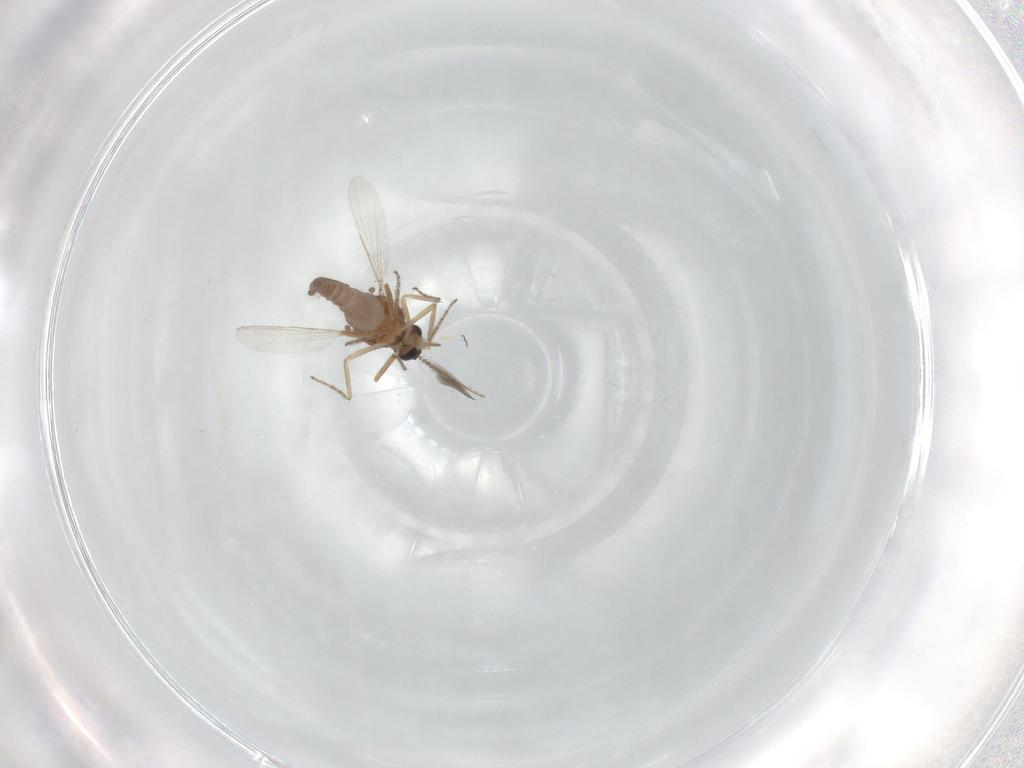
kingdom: Animalia
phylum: Arthropoda
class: Insecta
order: Diptera
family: Ceratopogonidae
